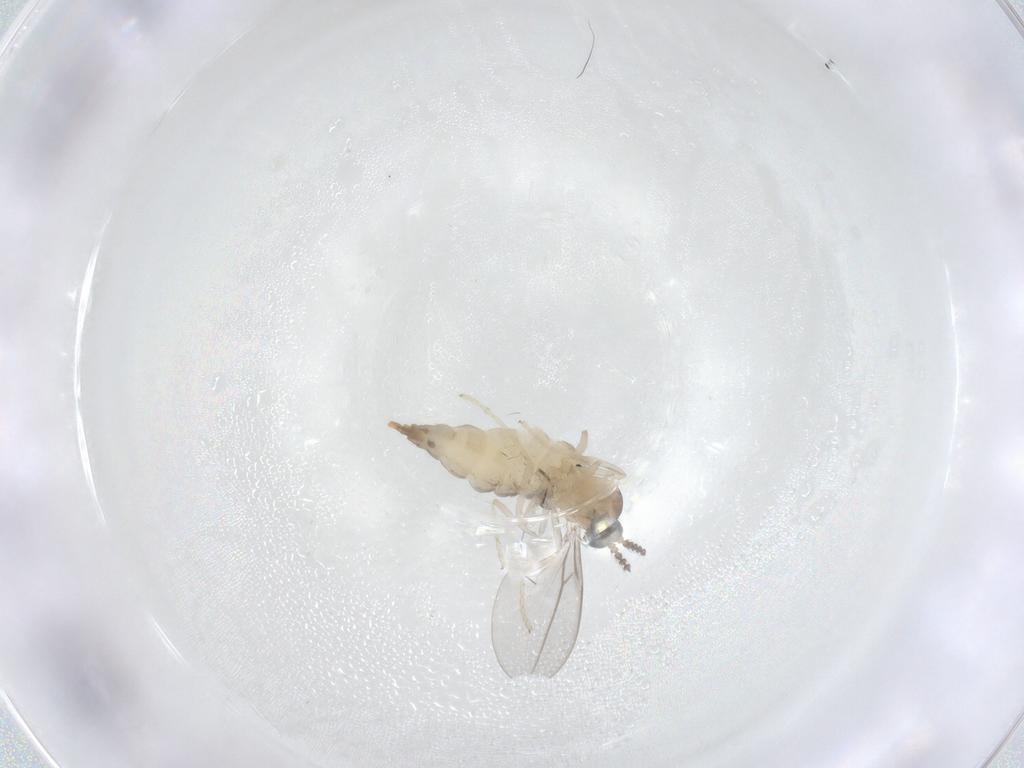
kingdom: Animalia
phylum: Arthropoda
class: Insecta
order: Diptera
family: Cecidomyiidae
